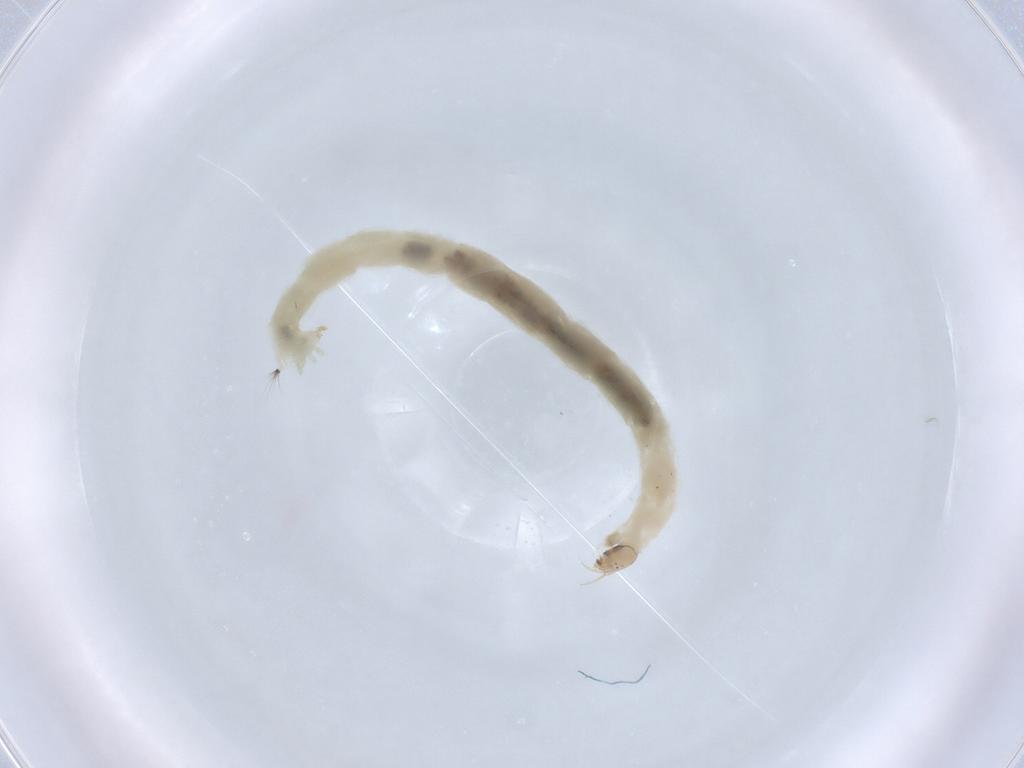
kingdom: Animalia
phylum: Arthropoda
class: Insecta
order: Diptera
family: Chironomidae
